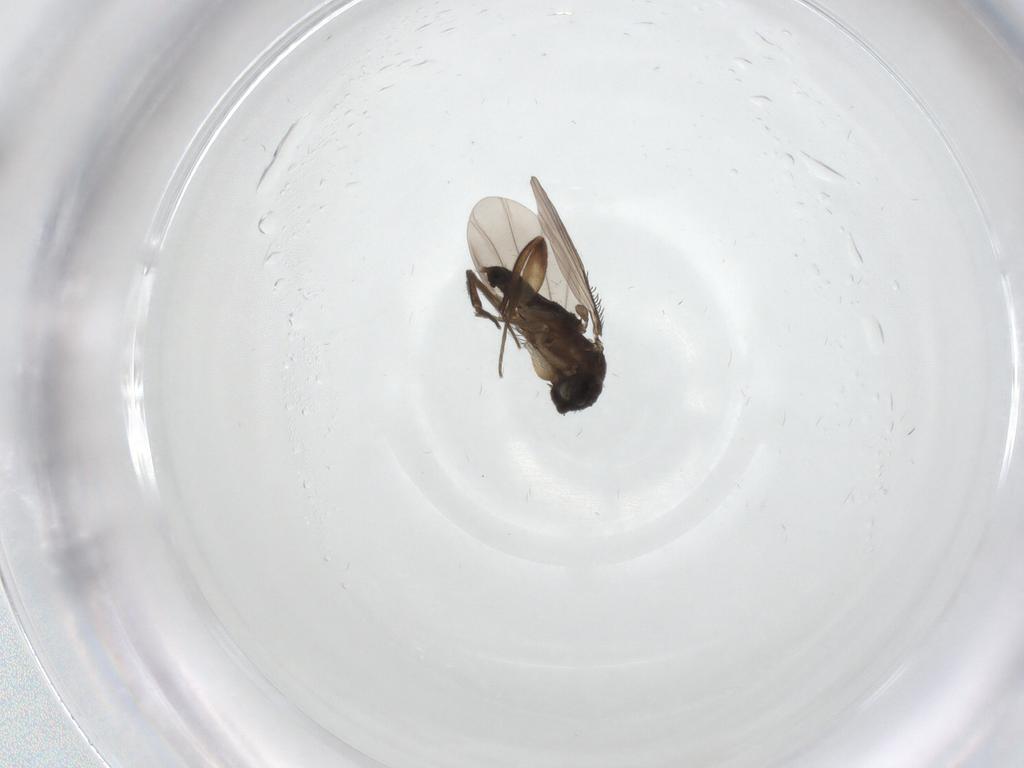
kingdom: Animalia
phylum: Arthropoda
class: Insecta
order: Diptera
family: Phoridae
